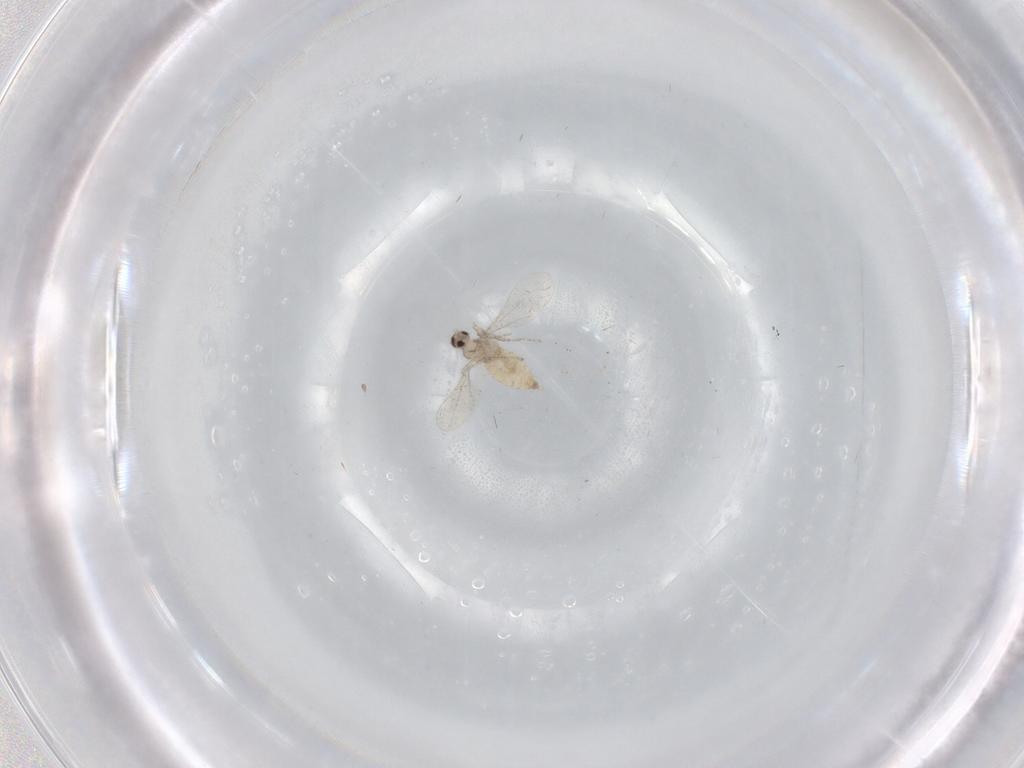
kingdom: Animalia
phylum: Arthropoda
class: Insecta
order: Diptera
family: Cecidomyiidae
